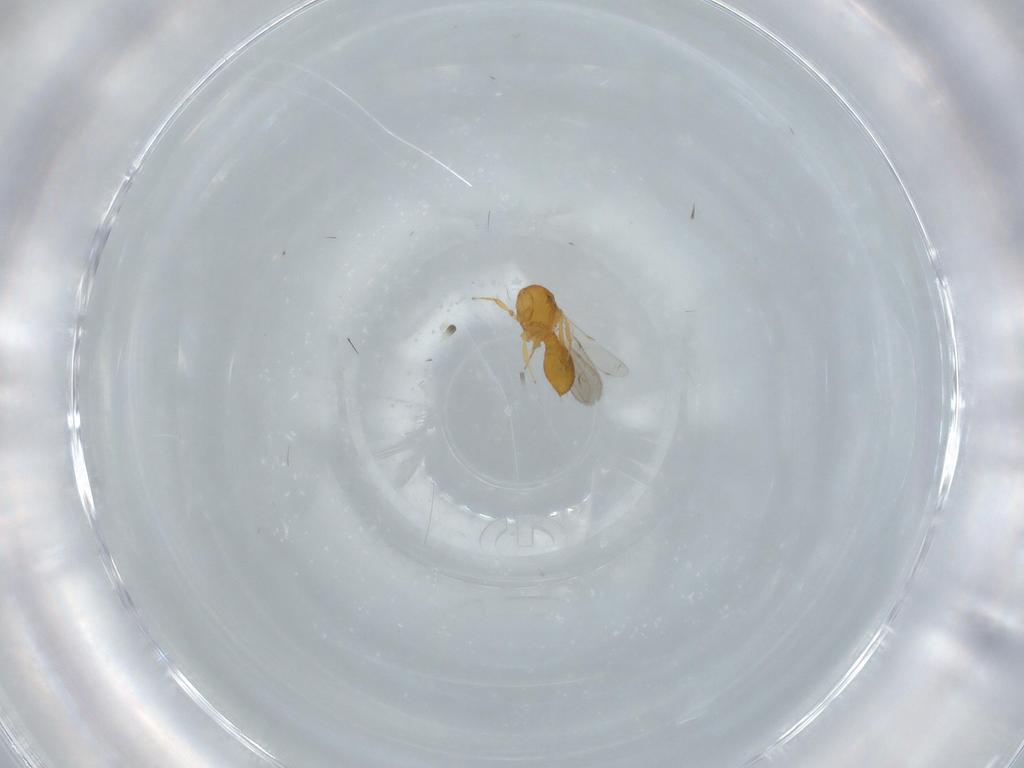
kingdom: Animalia
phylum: Arthropoda
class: Insecta
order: Hymenoptera
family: Scelionidae
